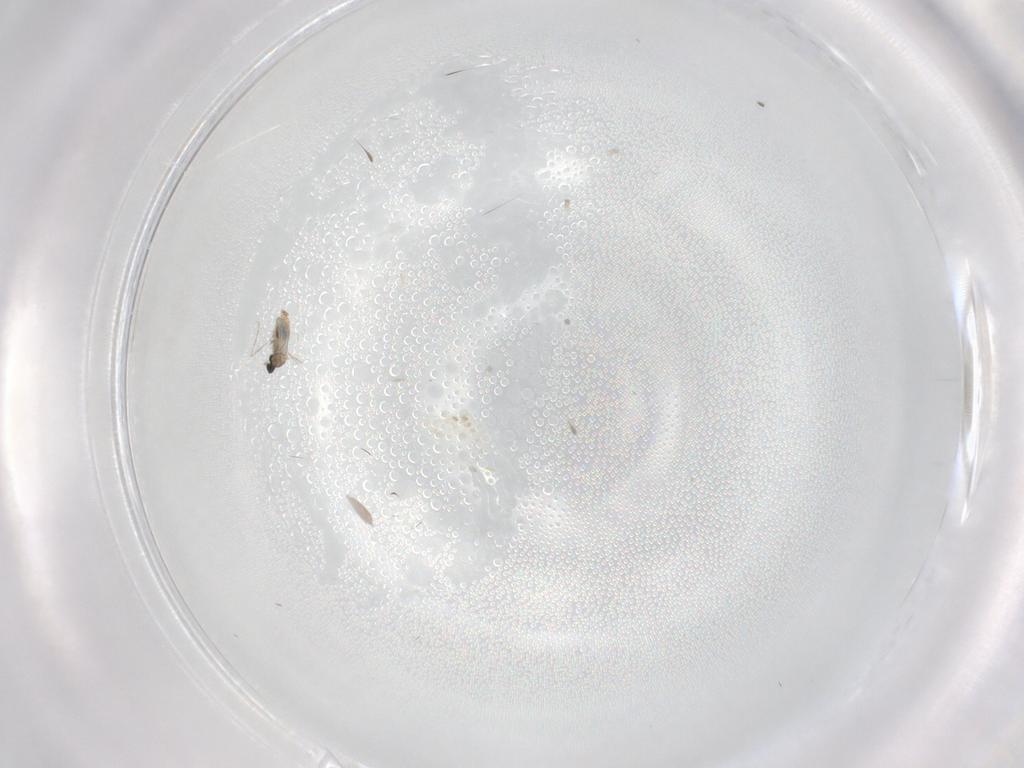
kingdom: Animalia
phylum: Arthropoda
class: Insecta
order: Diptera
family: Cecidomyiidae
